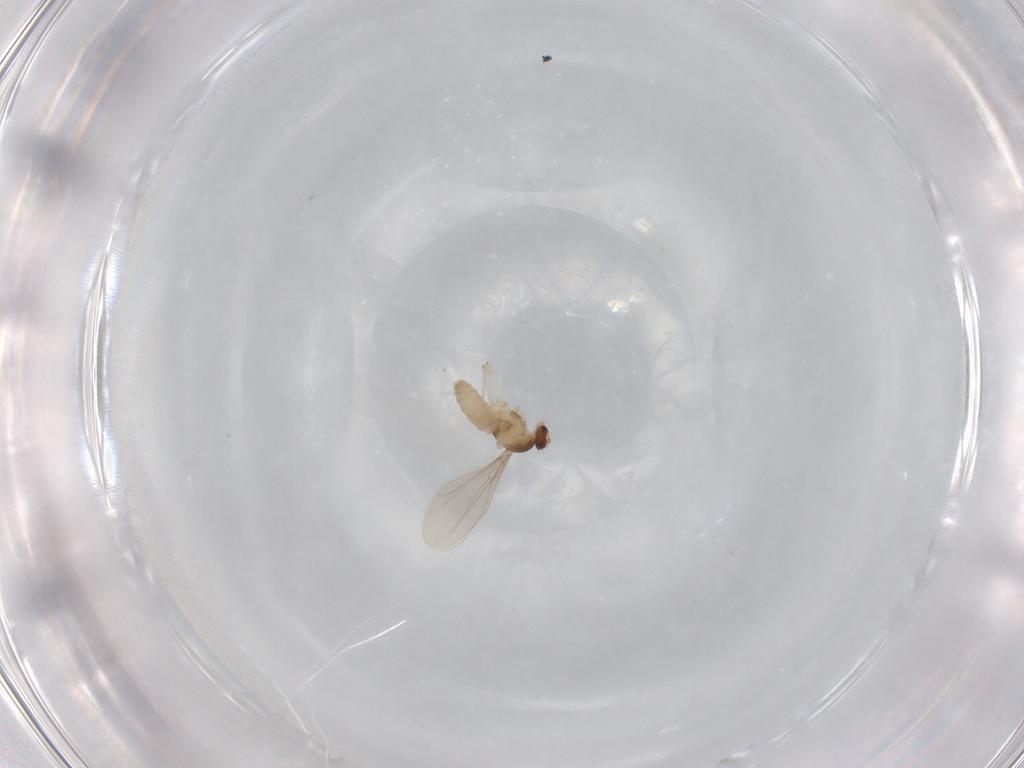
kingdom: Animalia
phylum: Arthropoda
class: Insecta
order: Diptera
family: Cecidomyiidae
